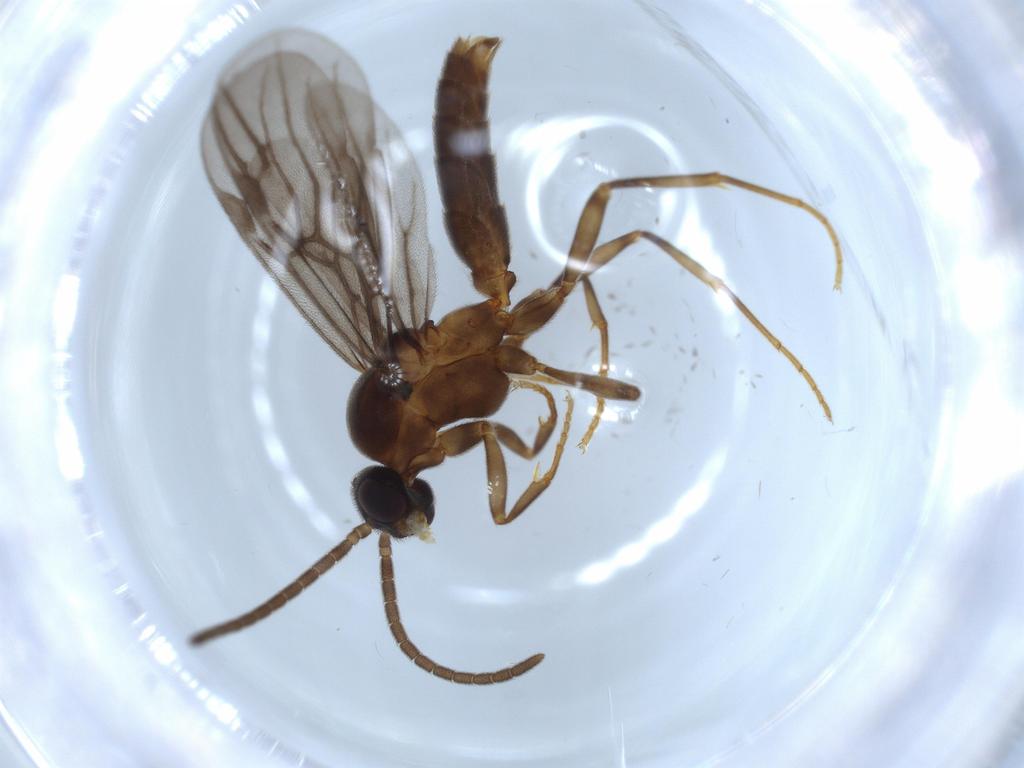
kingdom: Animalia
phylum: Arthropoda
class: Insecta
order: Hymenoptera
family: Formicidae
